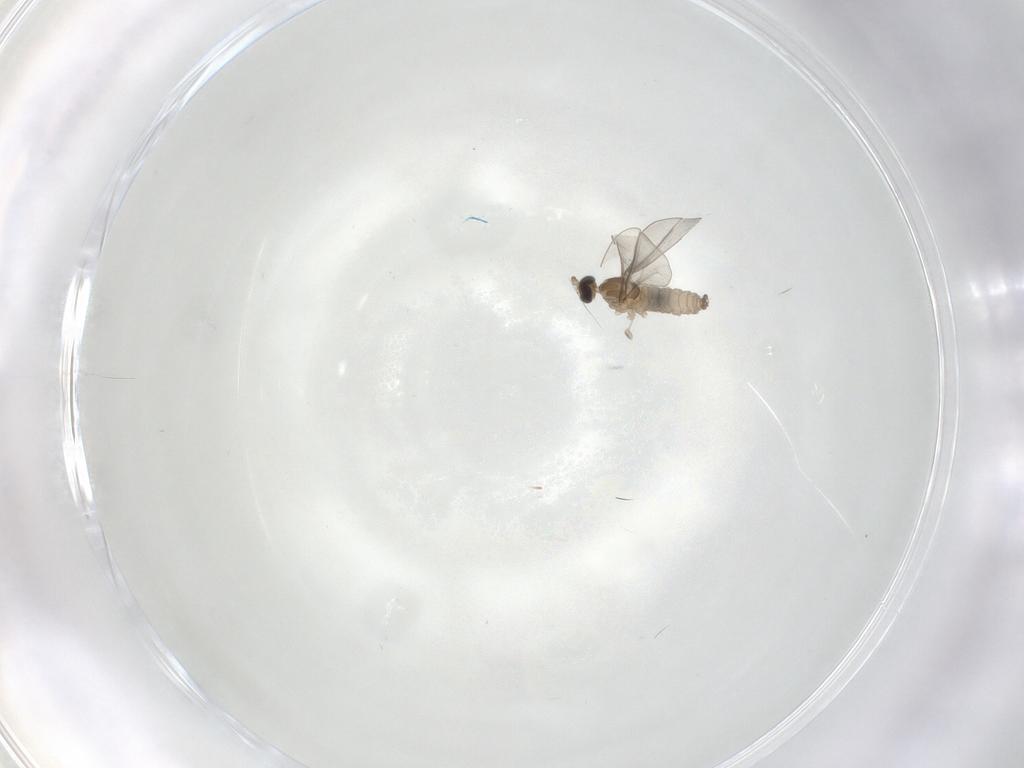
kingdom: Animalia
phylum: Arthropoda
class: Insecta
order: Diptera
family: Cecidomyiidae
